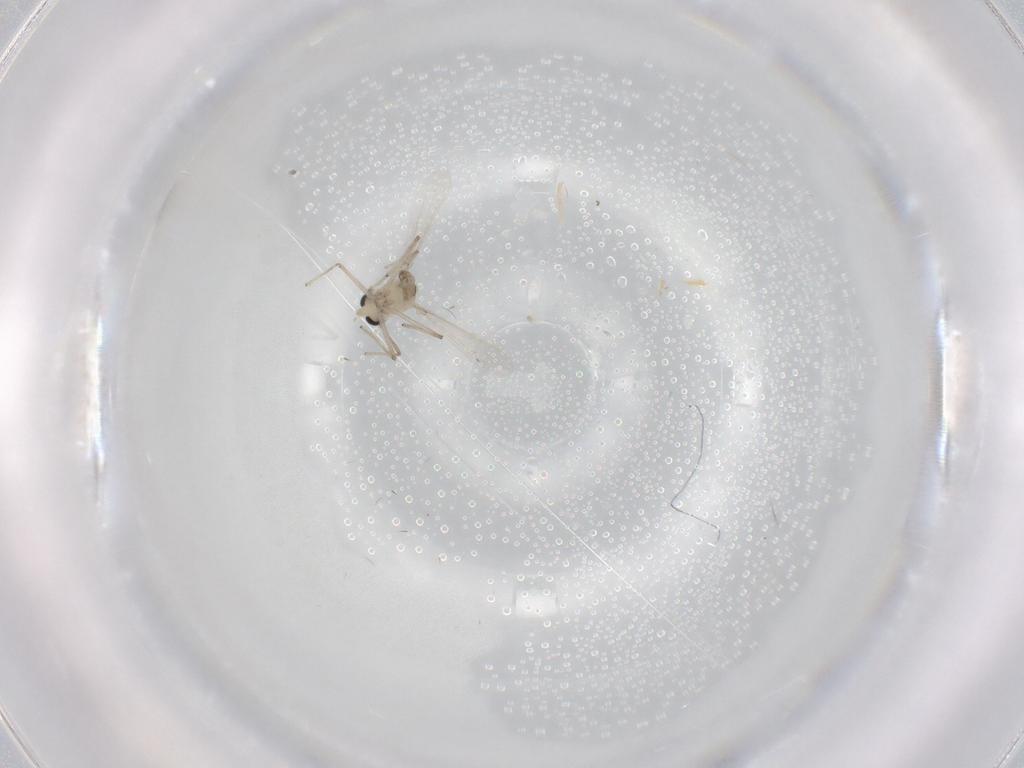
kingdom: Animalia
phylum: Arthropoda
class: Insecta
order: Diptera
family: Chironomidae
